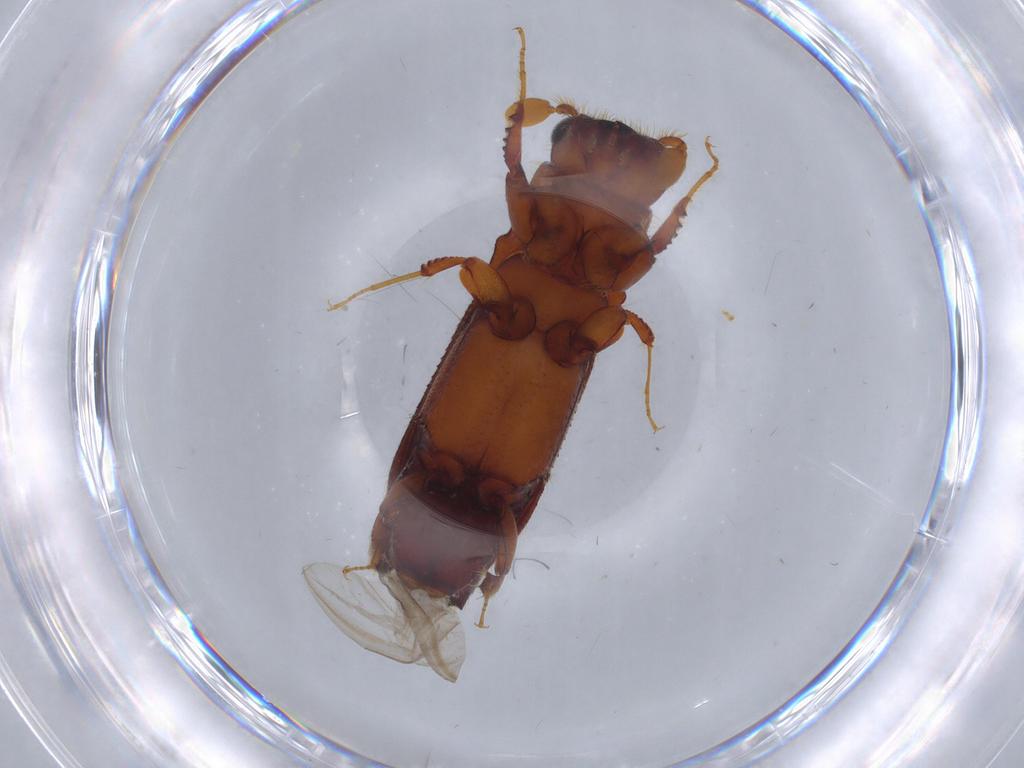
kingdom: Animalia
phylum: Arthropoda
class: Insecta
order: Coleoptera
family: Curculionidae
